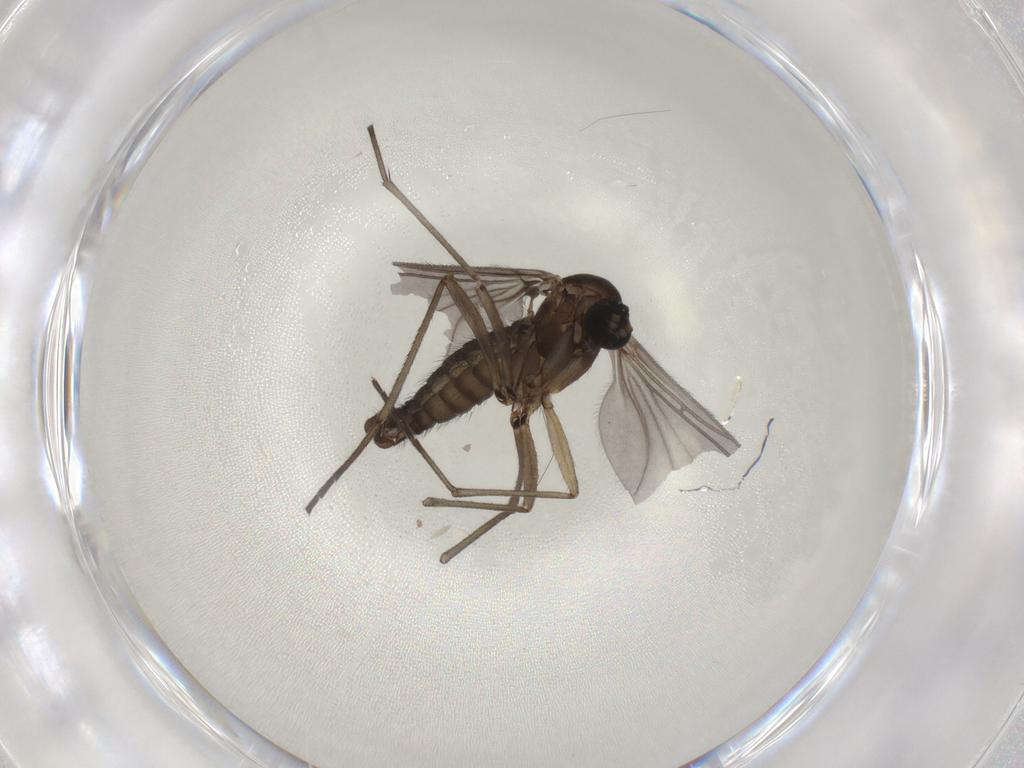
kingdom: Animalia
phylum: Arthropoda
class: Insecta
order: Diptera
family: Sciaridae
